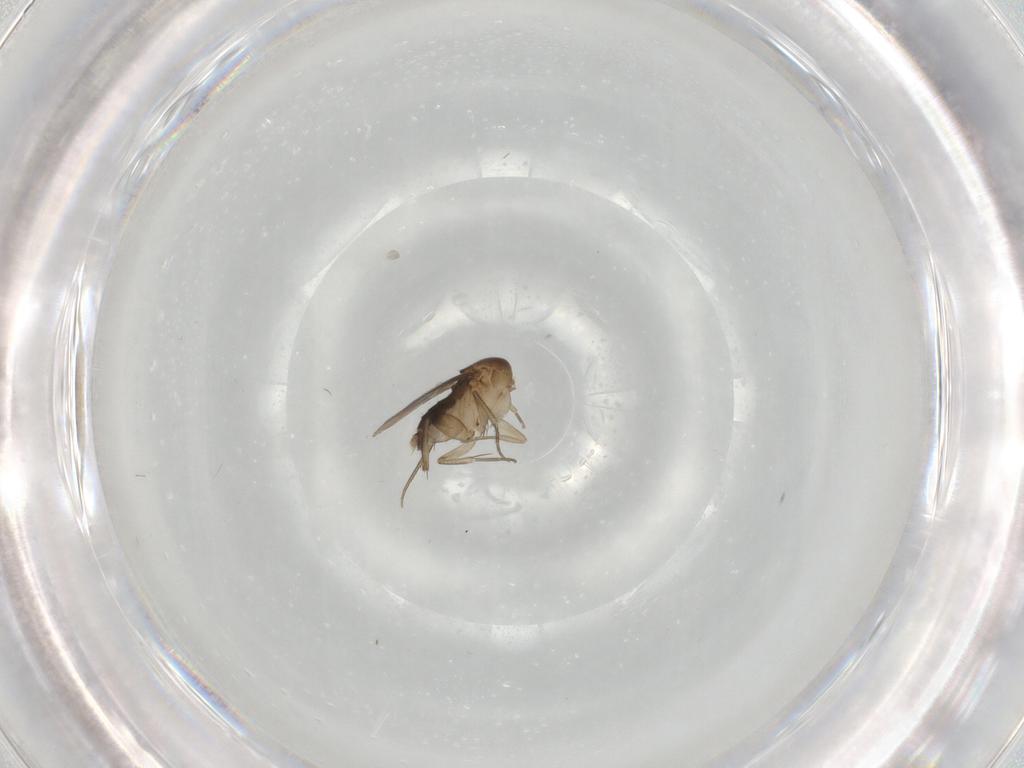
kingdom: Animalia
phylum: Arthropoda
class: Insecta
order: Diptera
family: Phoridae
